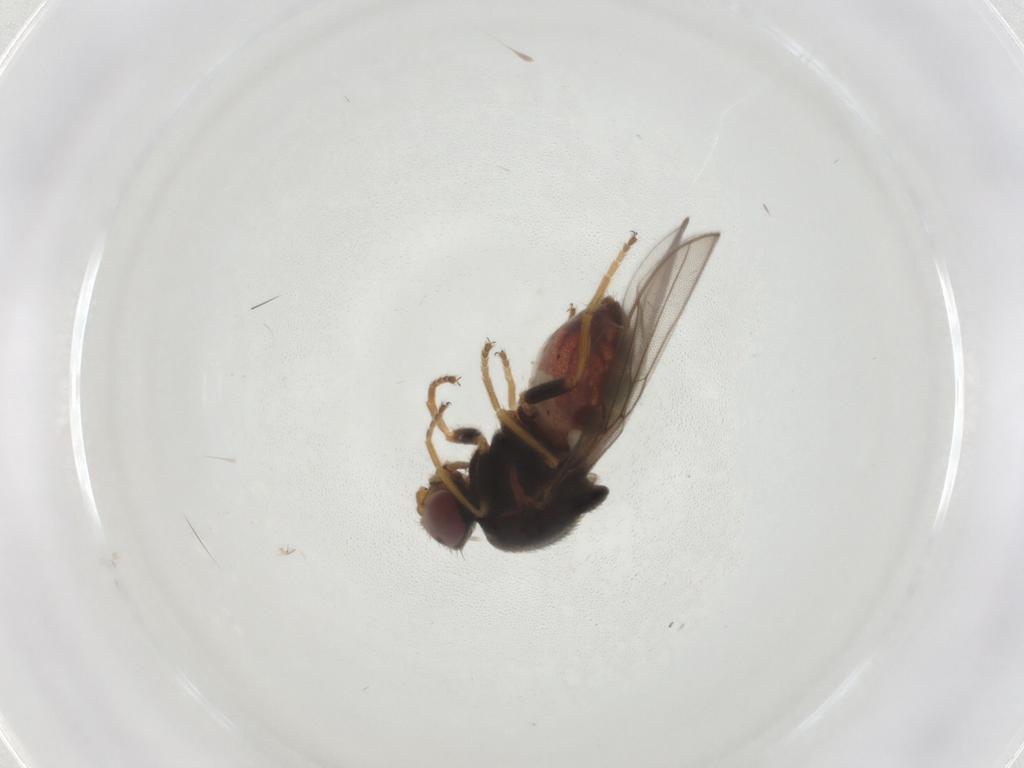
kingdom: Animalia
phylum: Arthropoda
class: Insecta
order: Diptera
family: Chloropidae
